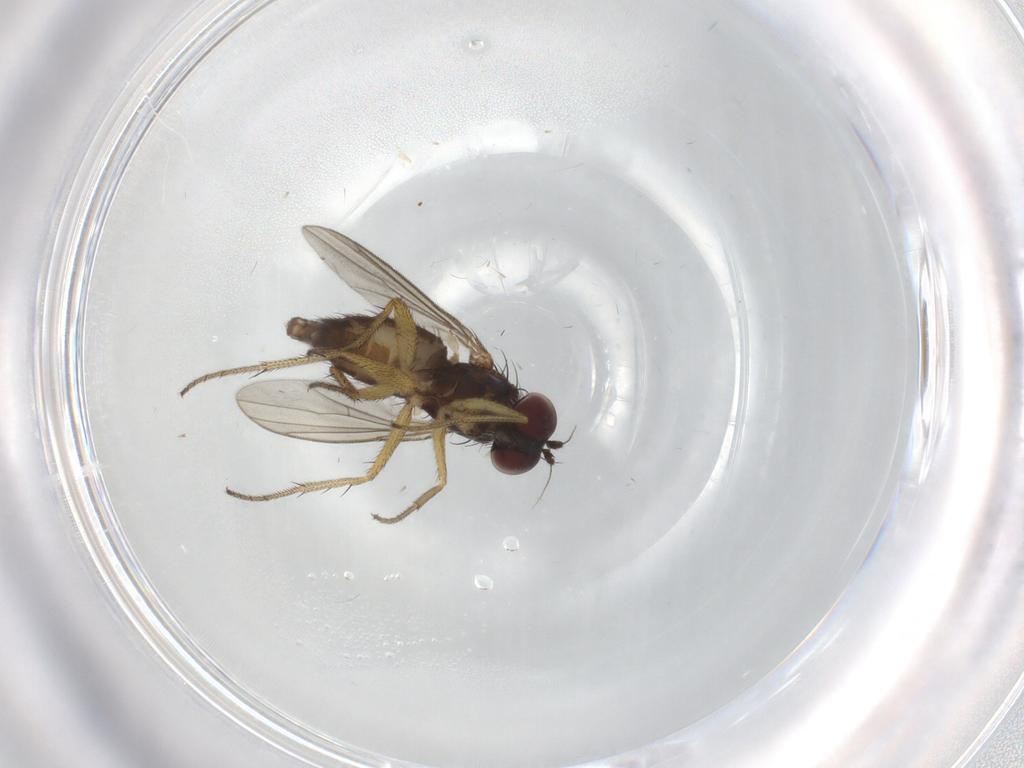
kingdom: Animalia
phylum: Arthropoda
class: Insecta
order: Diptera
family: Dolichopodidae
